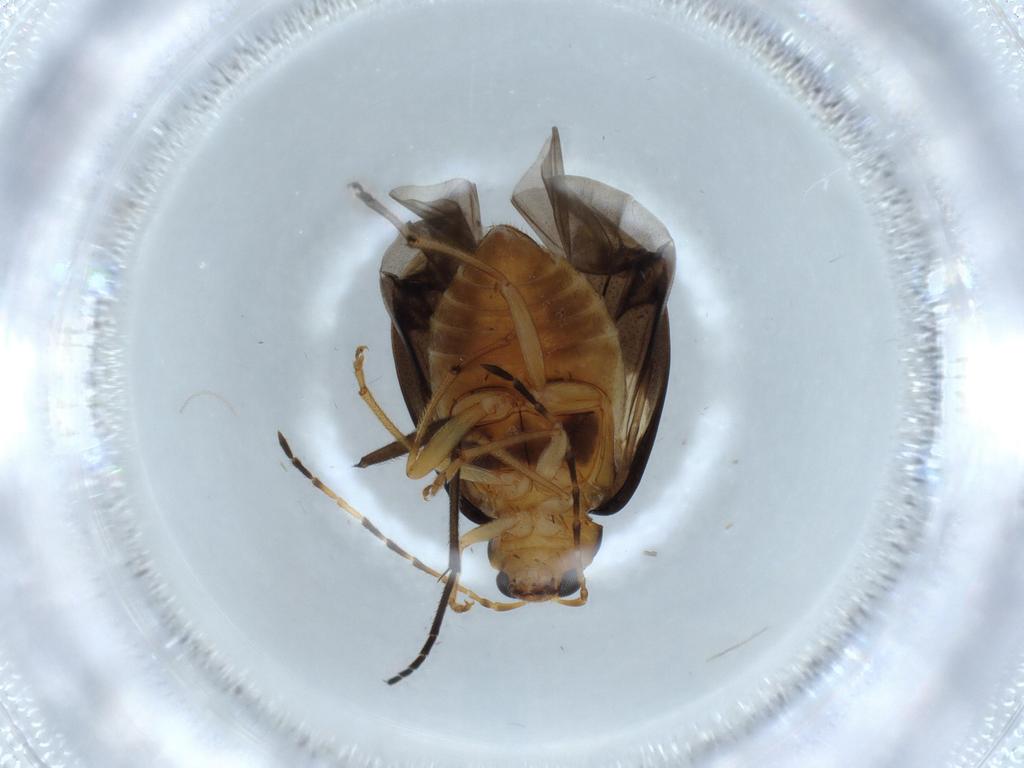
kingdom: Animalia
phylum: Arthropoda
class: Insecta
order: Coleoptera
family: Chrysomelidae
